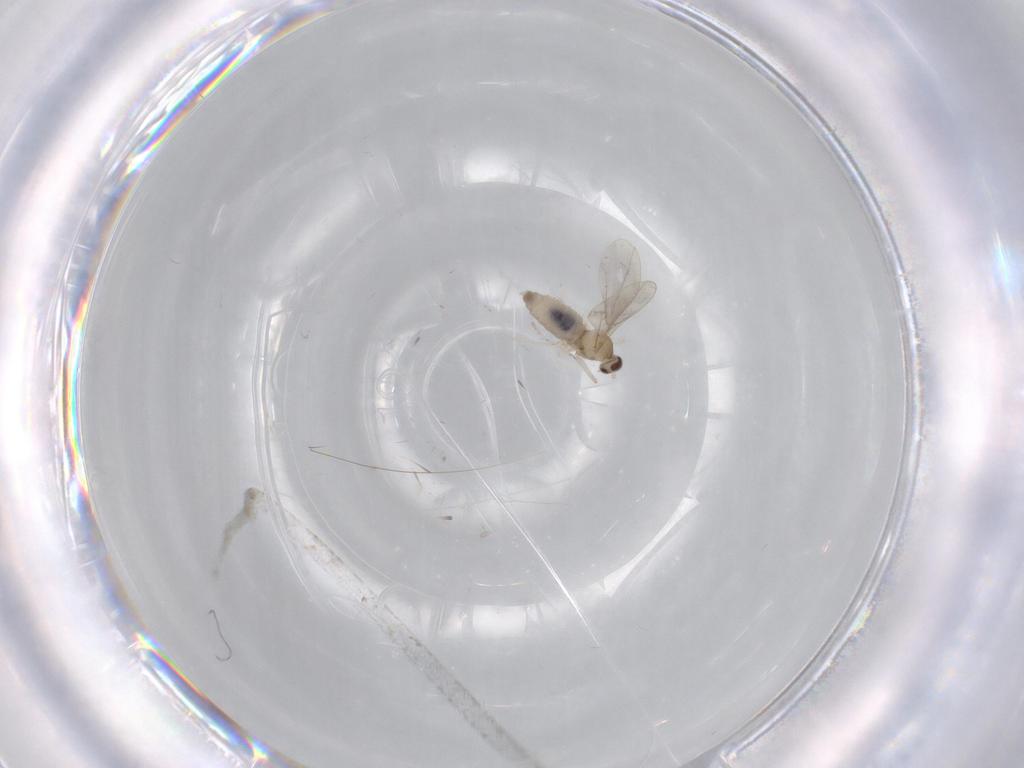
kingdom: Animalia
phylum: Arthropoda
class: Insecta
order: Diptera
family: Cecidomyiidae
